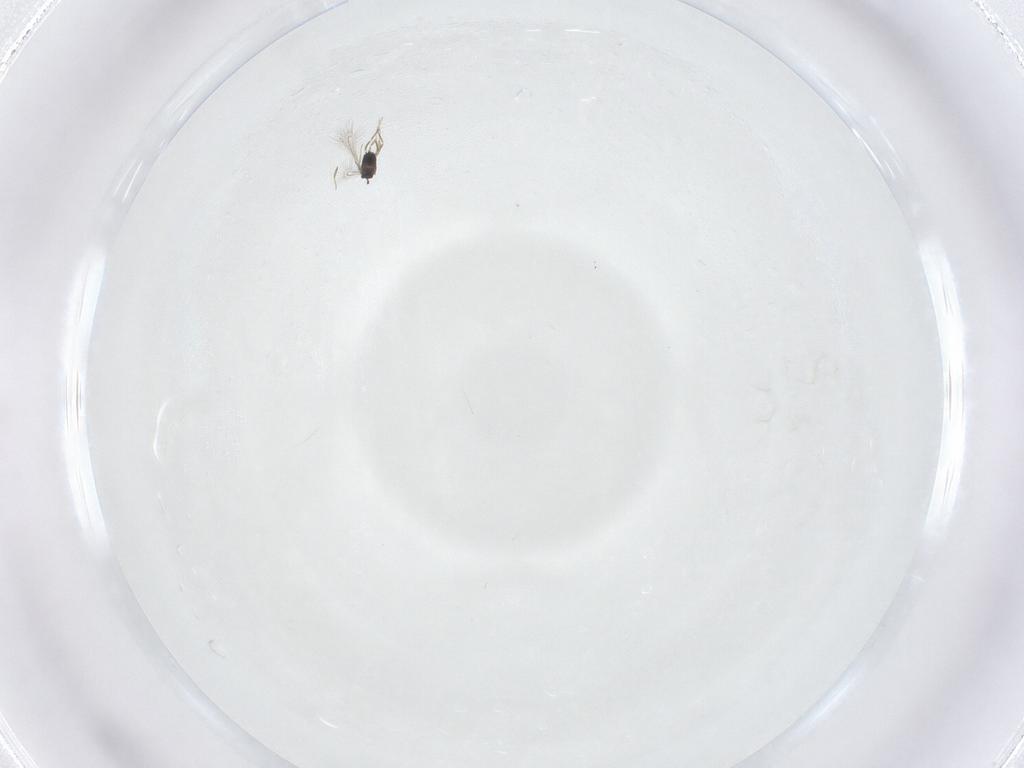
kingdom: Animalia
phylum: Arthropoda
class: Insecta
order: Hymenoptera
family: Mymaridae
